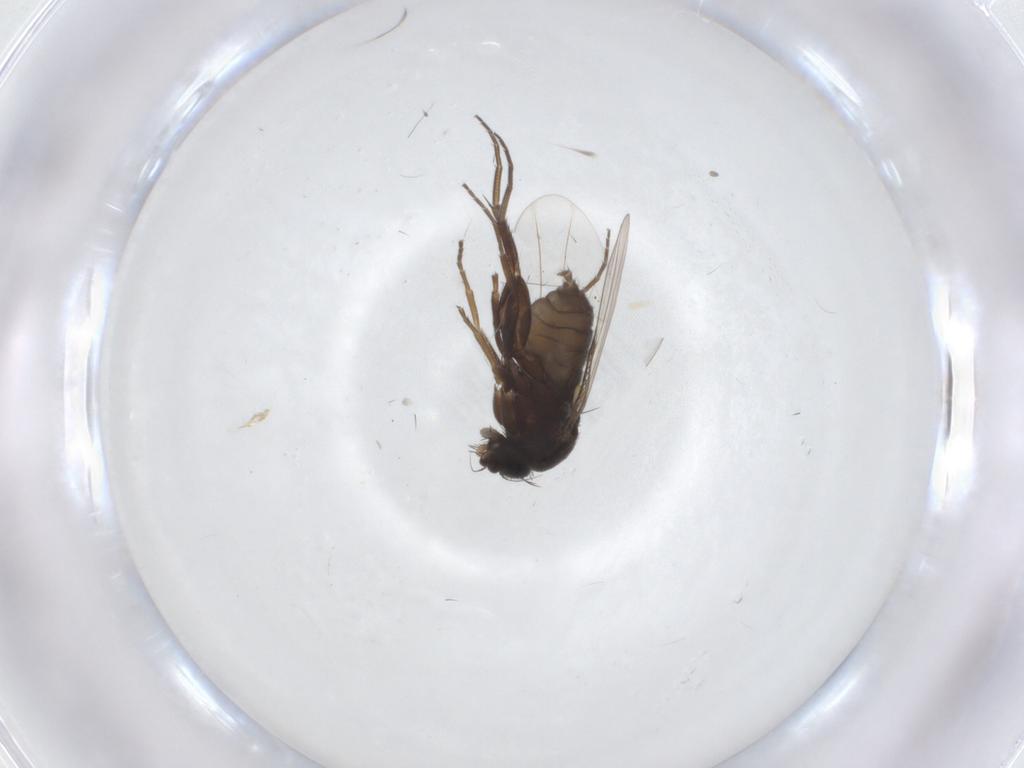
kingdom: Animalia
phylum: Arthropoda
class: Insecta
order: Diptera
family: Phoridae
